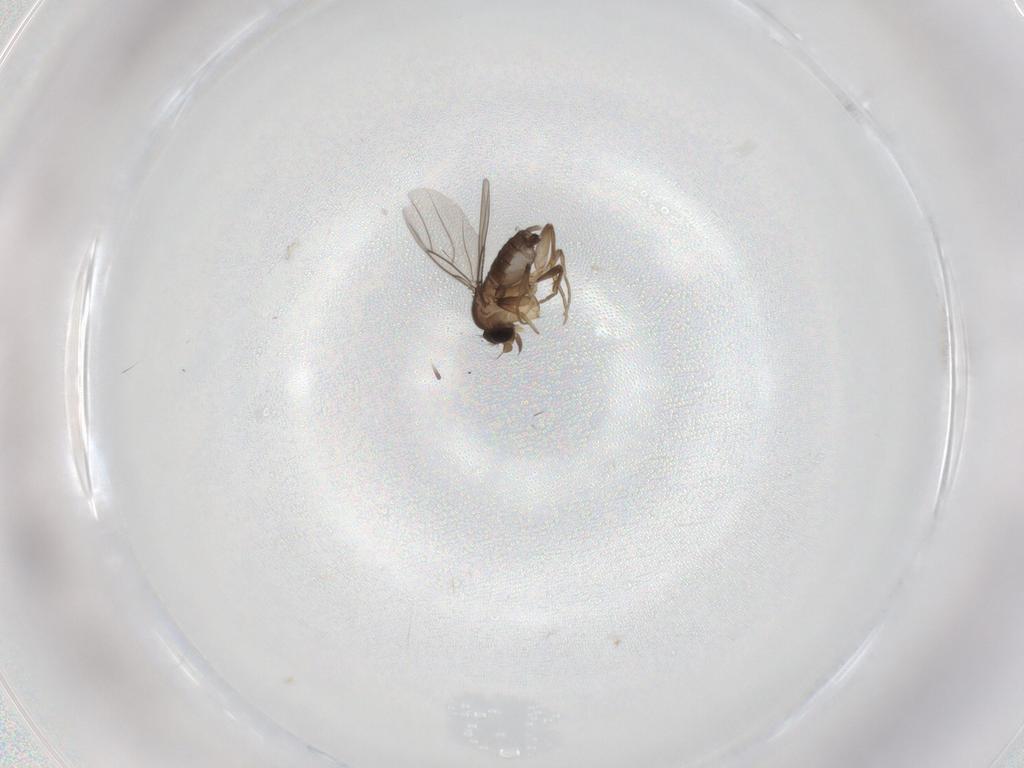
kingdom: Animalia
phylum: Arthropoda
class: Insecta
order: Diptera
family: Phoridae
